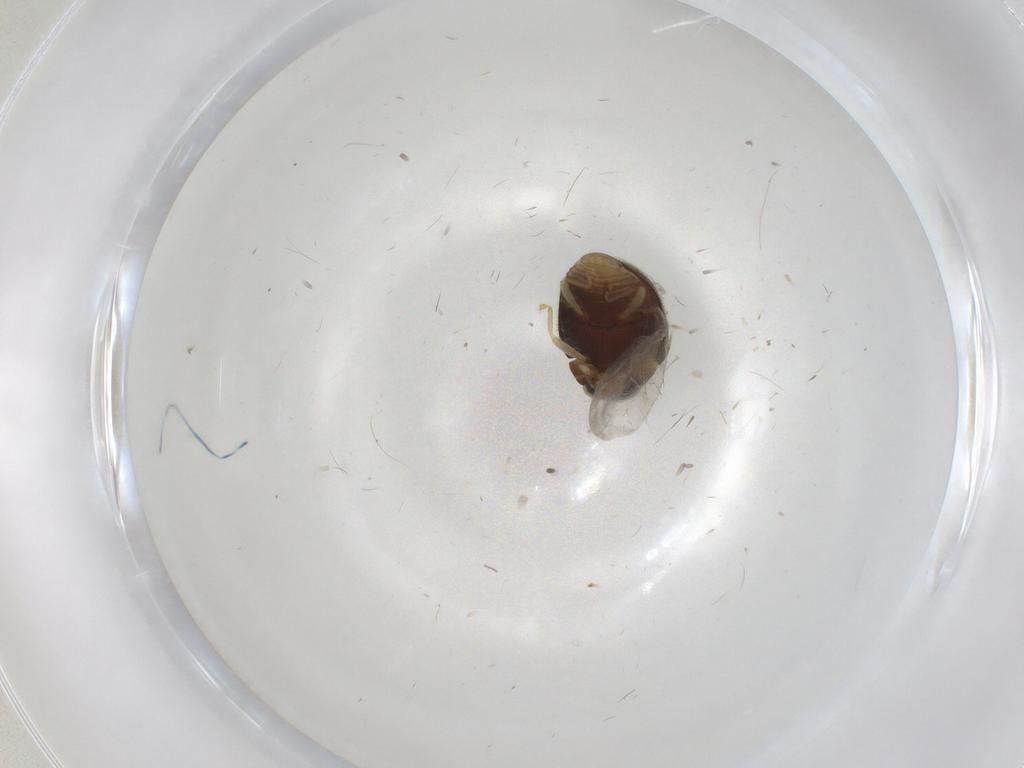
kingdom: Animalia
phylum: Arthropoda
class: Insecta
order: Coleoptera
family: Coccinellidae
